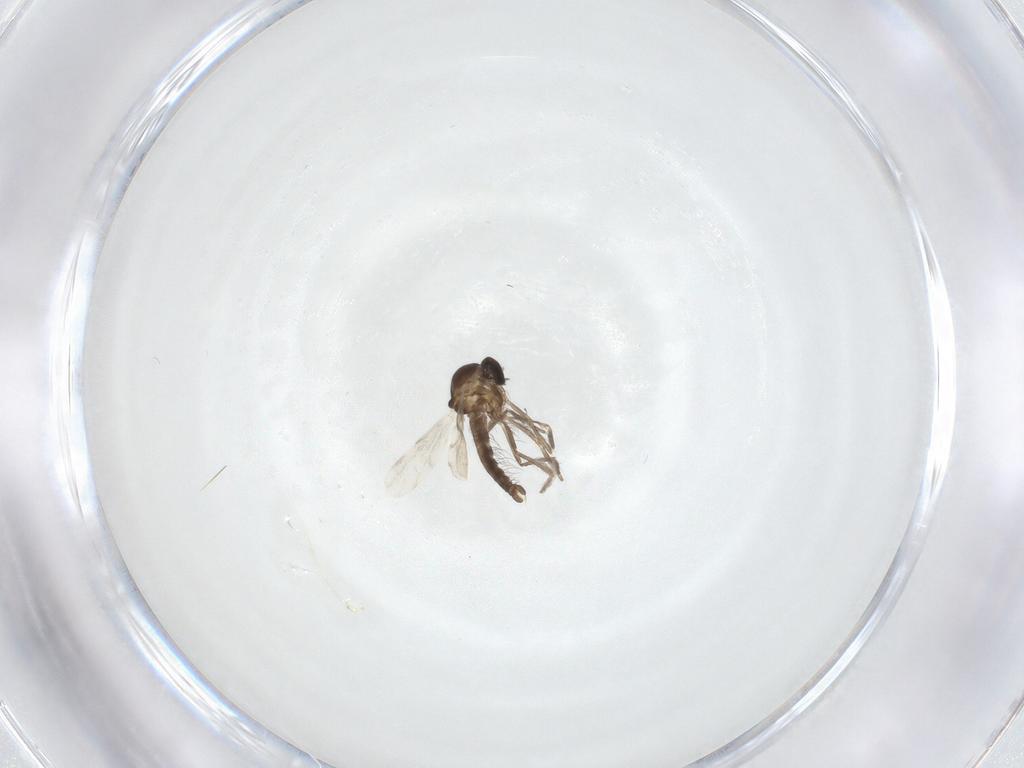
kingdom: Animalia
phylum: Arthropoda
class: Insecta
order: Diptera
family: Ceratopogonidae
